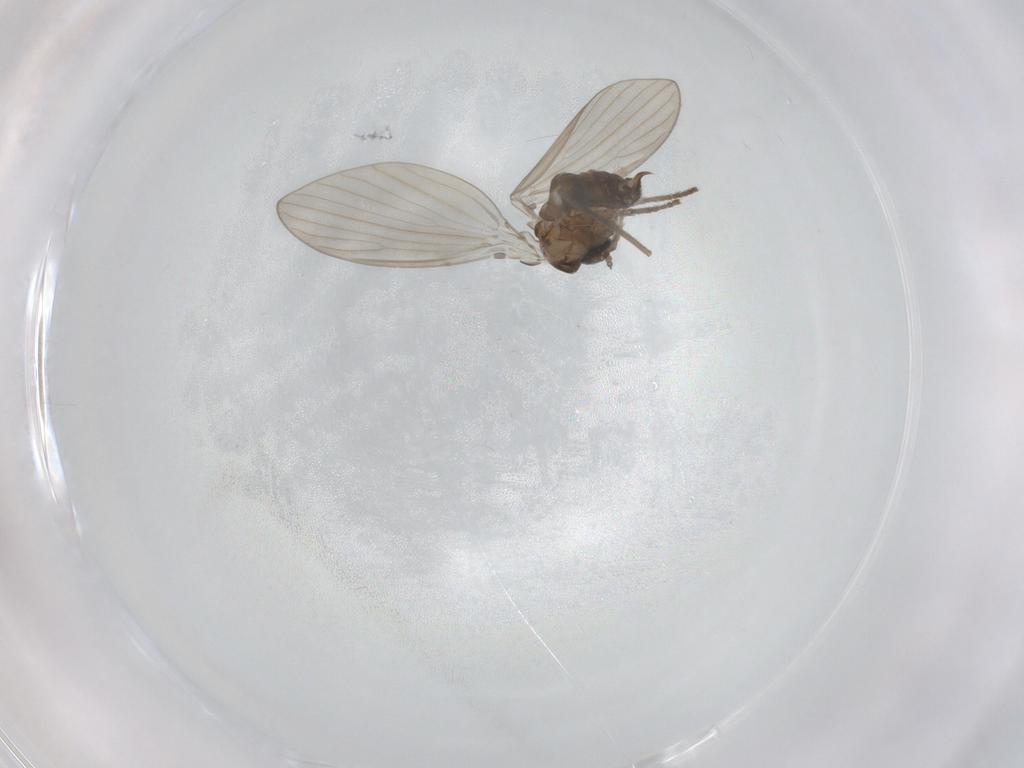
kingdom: Animalia
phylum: Arthropoda
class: Insecta
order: Diptera
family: Psychodidae
